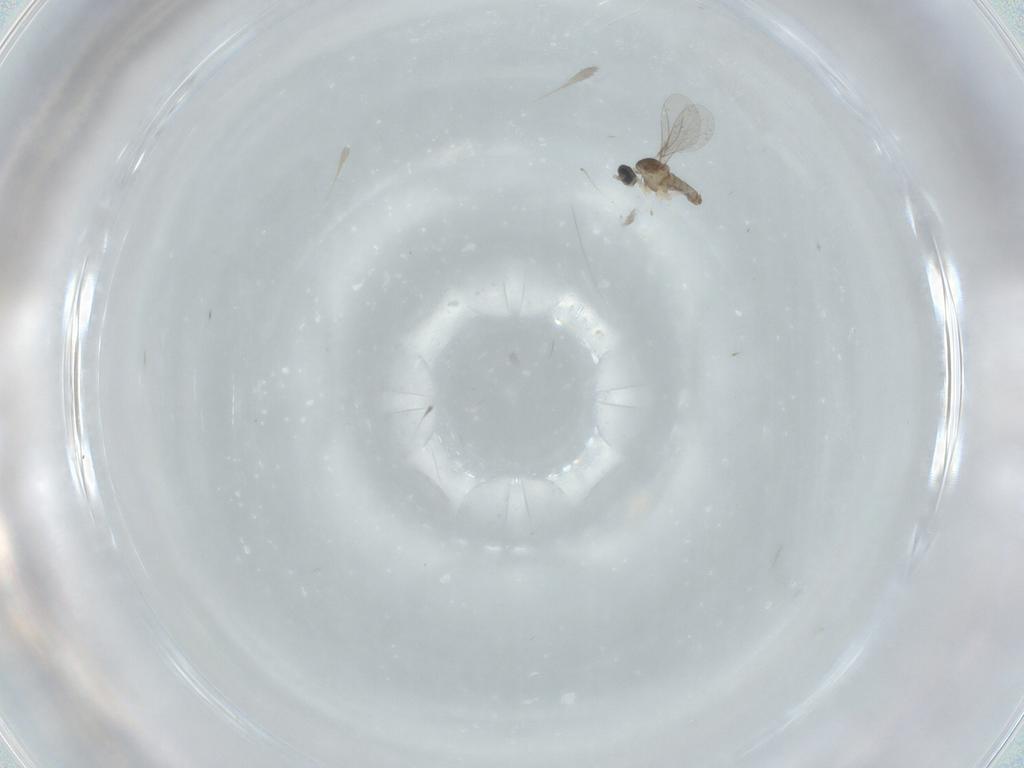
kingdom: Animalia
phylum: Arthropoda
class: Insecta
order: Diptera
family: Cecidomyiidae
